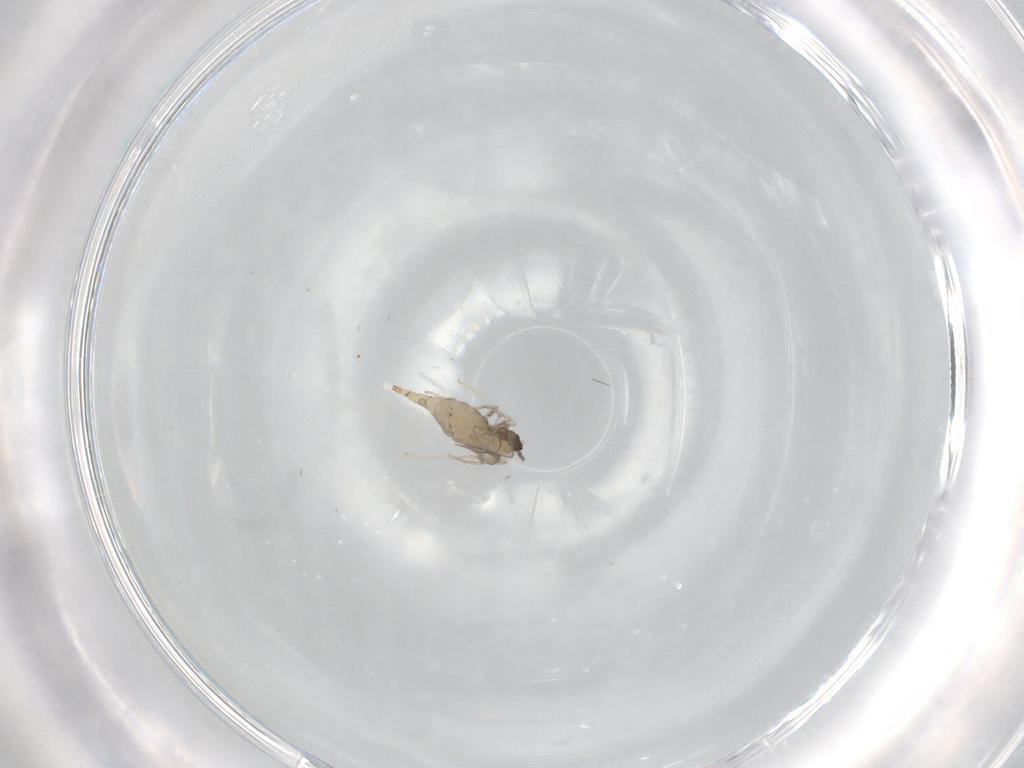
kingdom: Animalia
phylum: Arthropoda
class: Insecta
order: Diptera
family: Cecidomyiidae
